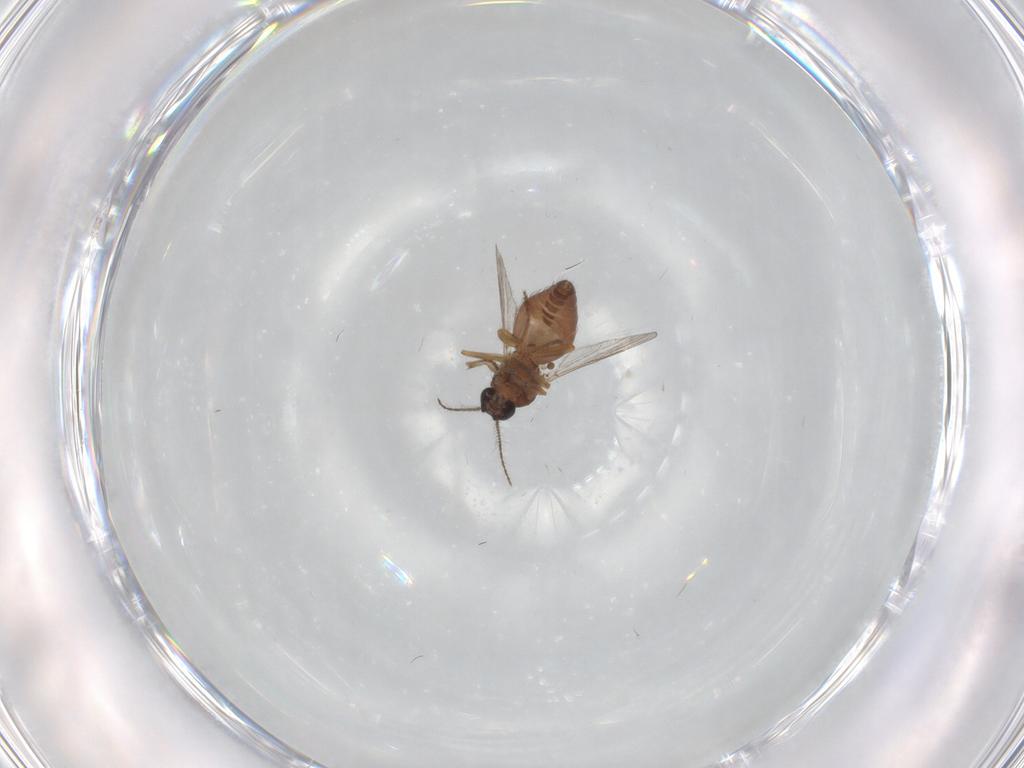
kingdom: Animalia
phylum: Arthropoda
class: Insecta
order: Diptera
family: Ceratopogonidae
